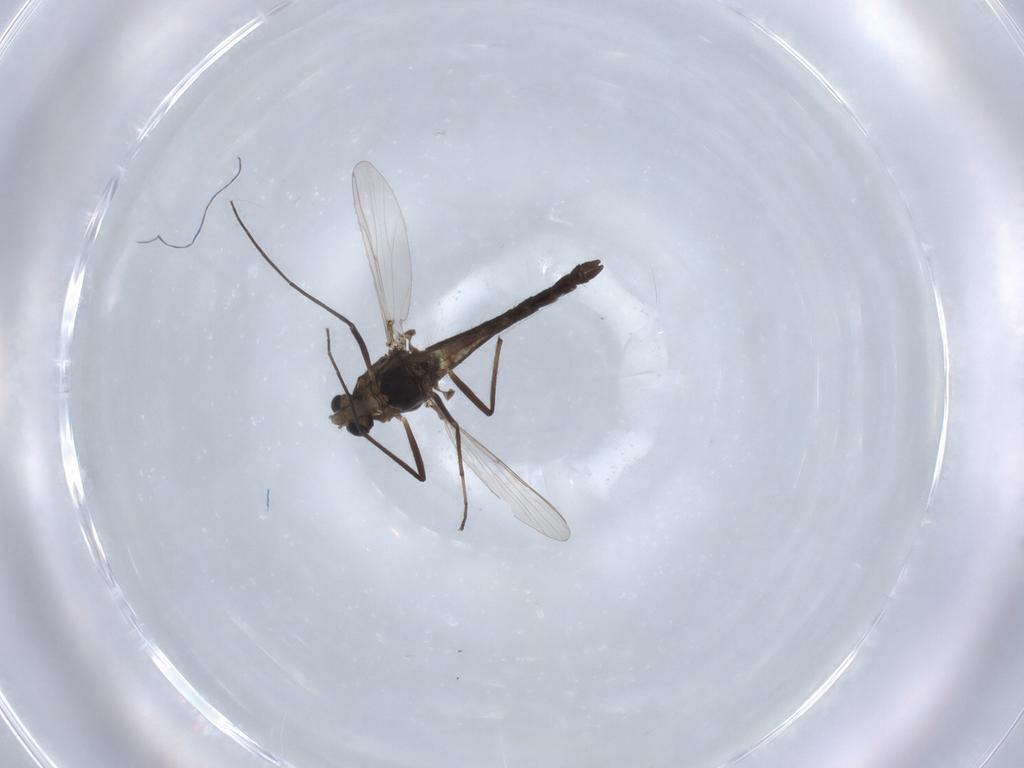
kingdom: Animalia
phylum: Arthropoda
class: Insecta
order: Diptera
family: Chironomidae
